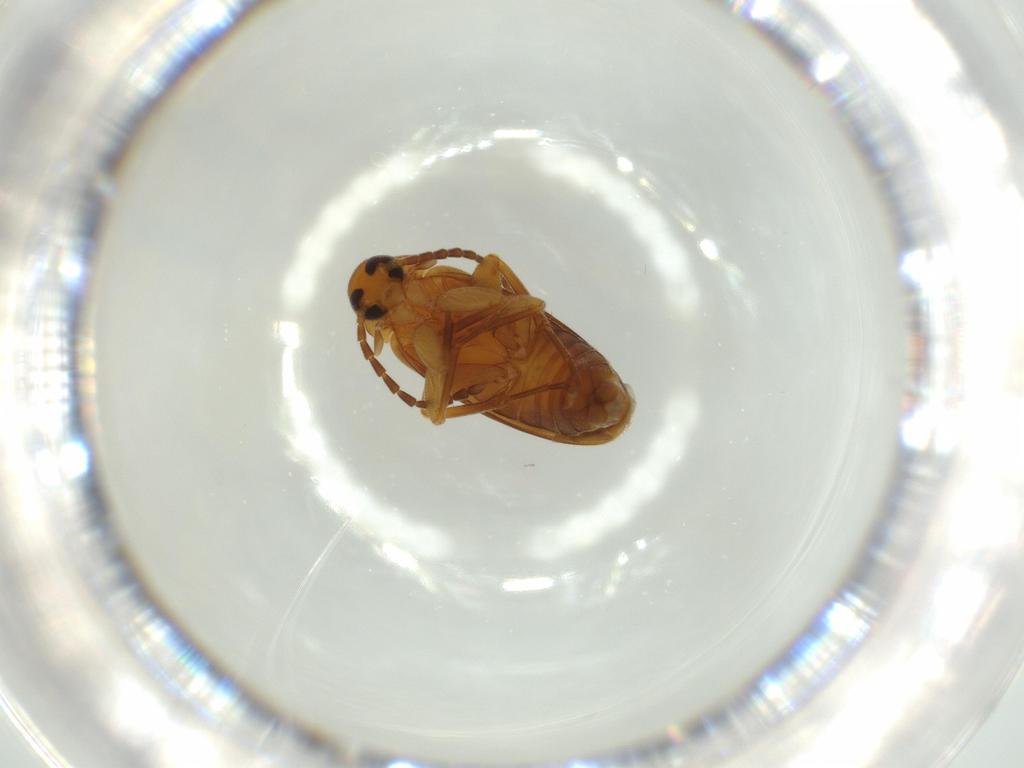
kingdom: Animalia
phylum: Arthropoda
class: Insecta
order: Coleoptera
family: Scraptiidae
